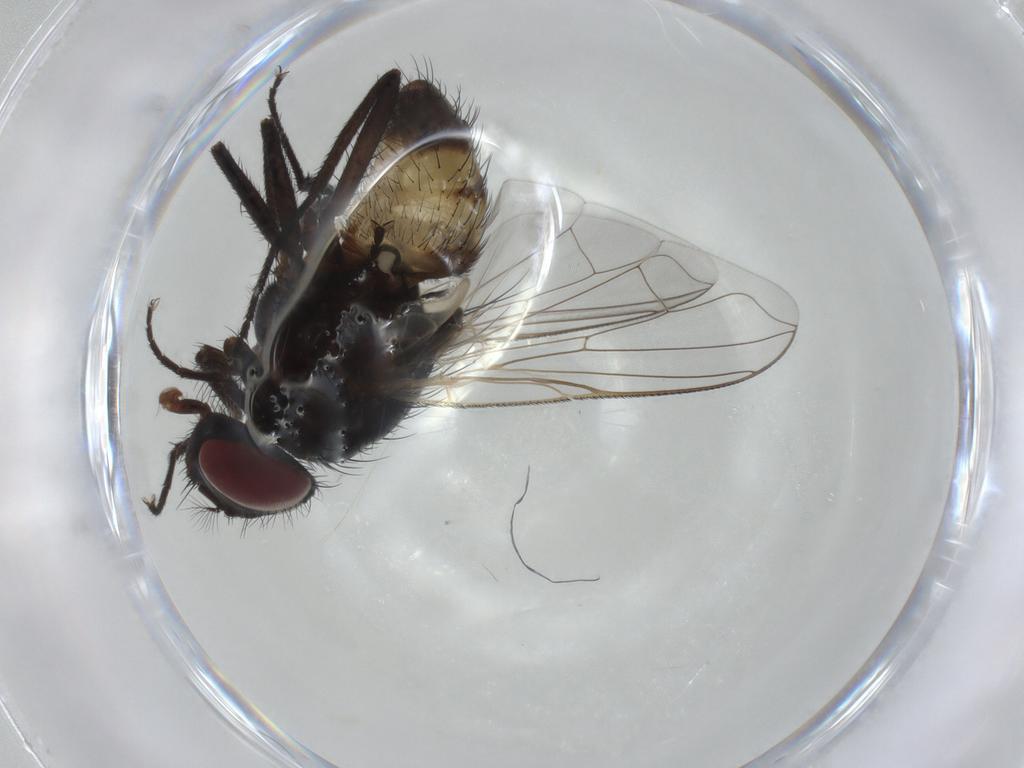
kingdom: Animalia
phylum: Arthropoda
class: Insecta
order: Diptera
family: Muscidae
